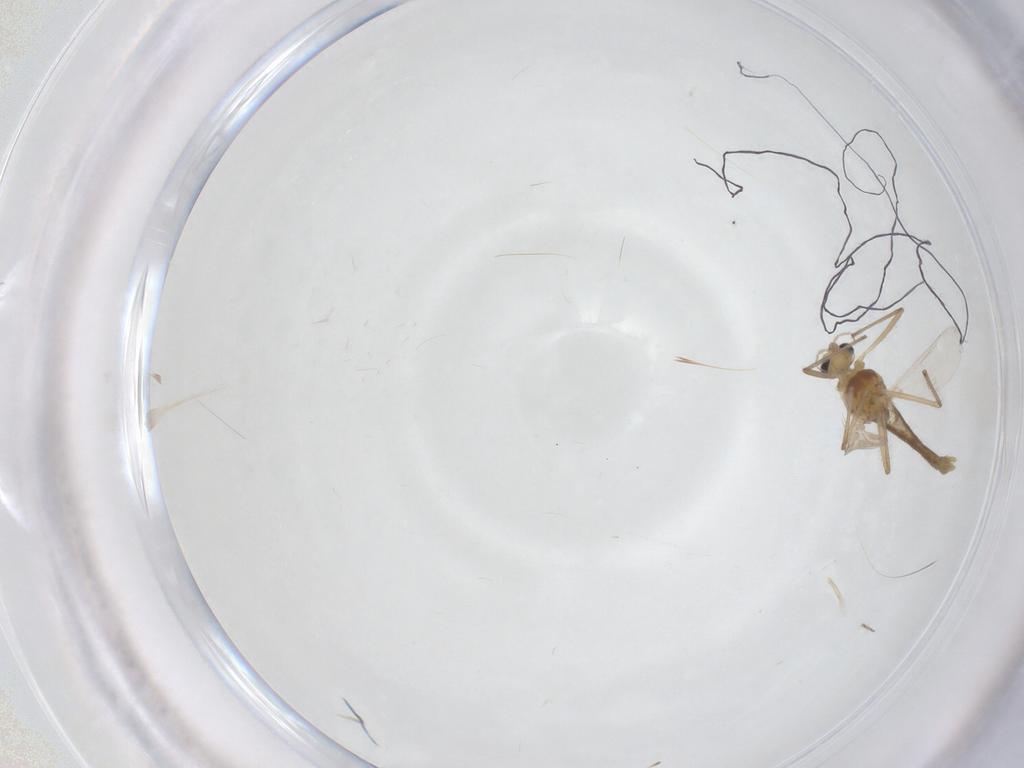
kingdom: Animalia
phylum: Arthropoda
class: Insecta
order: Diptera
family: Chironomidae
